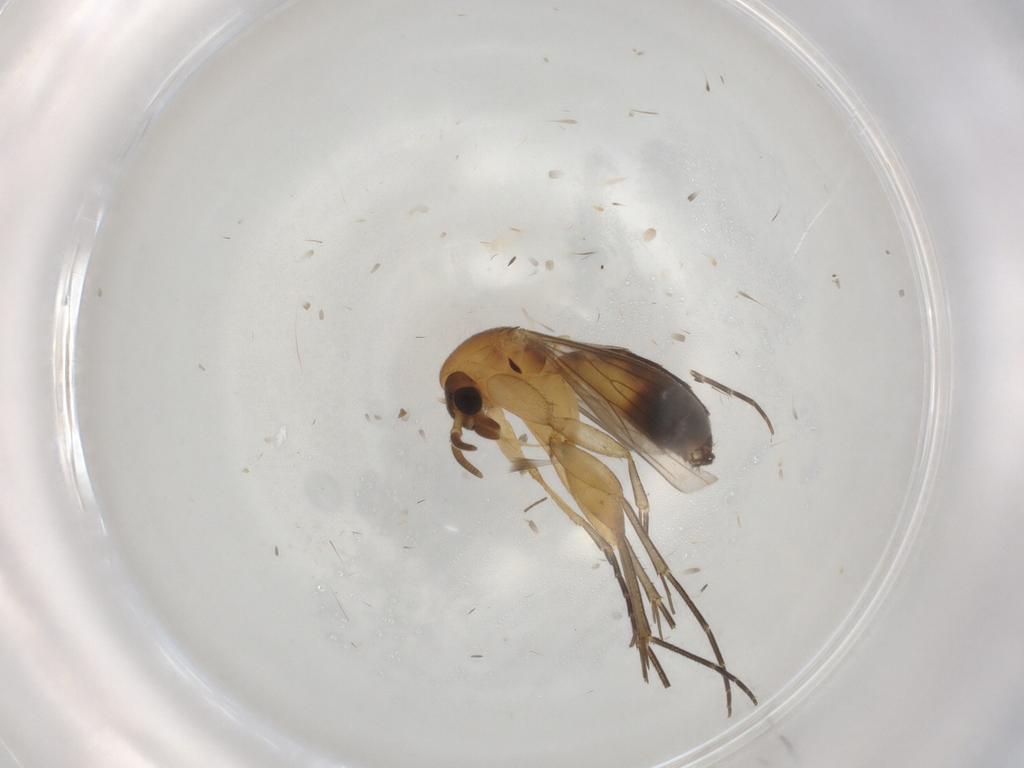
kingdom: Animalia
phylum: Arthropoda
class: Insecta
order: Diptera
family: Mycetophilidae
